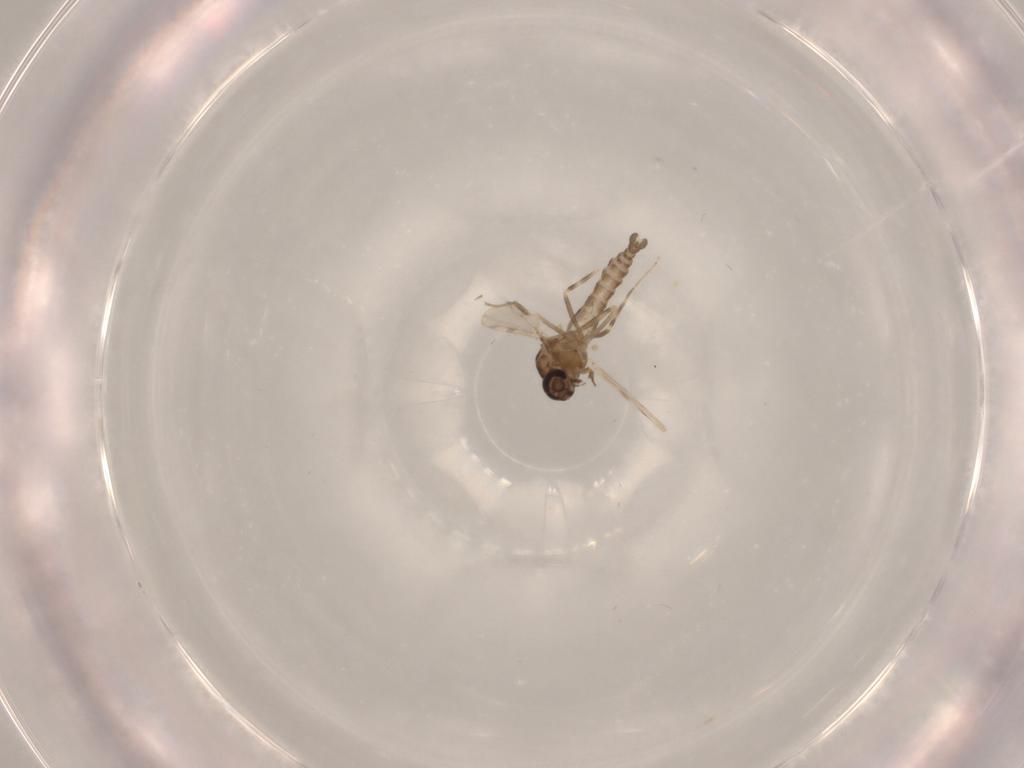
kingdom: Animalia
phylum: Arthropoda
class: Insecta
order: Diptera
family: Ceratopogonidae
